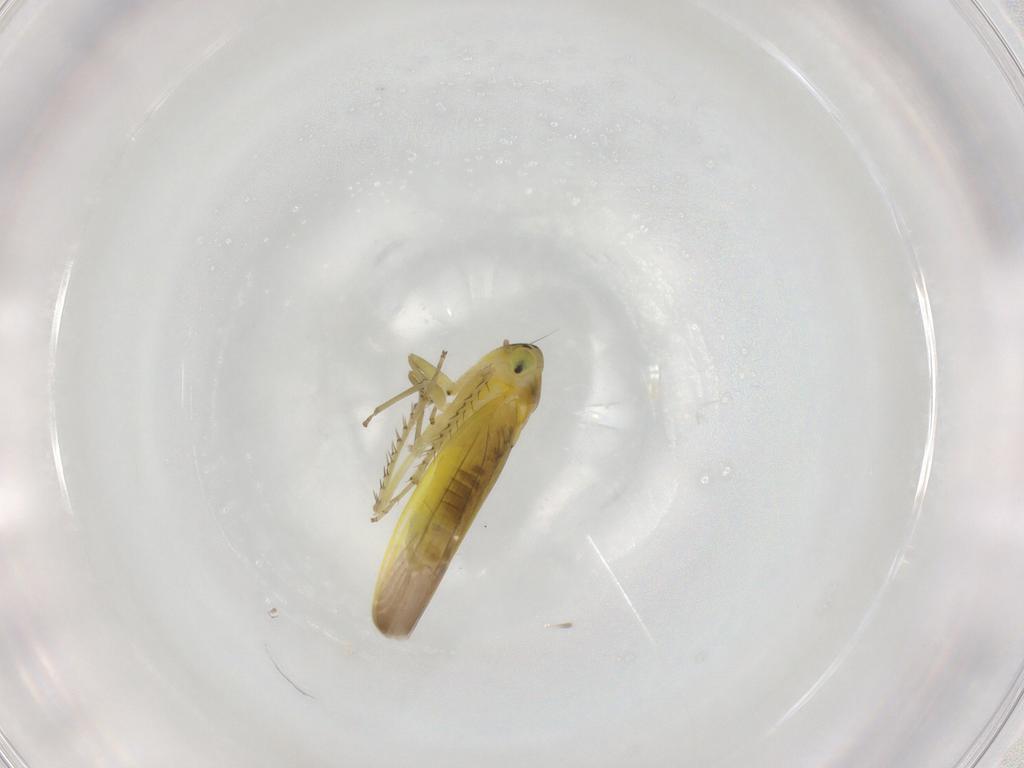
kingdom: Animalia
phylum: Arthropoda
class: Insecta
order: Hemiptera
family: Cicadellidae
